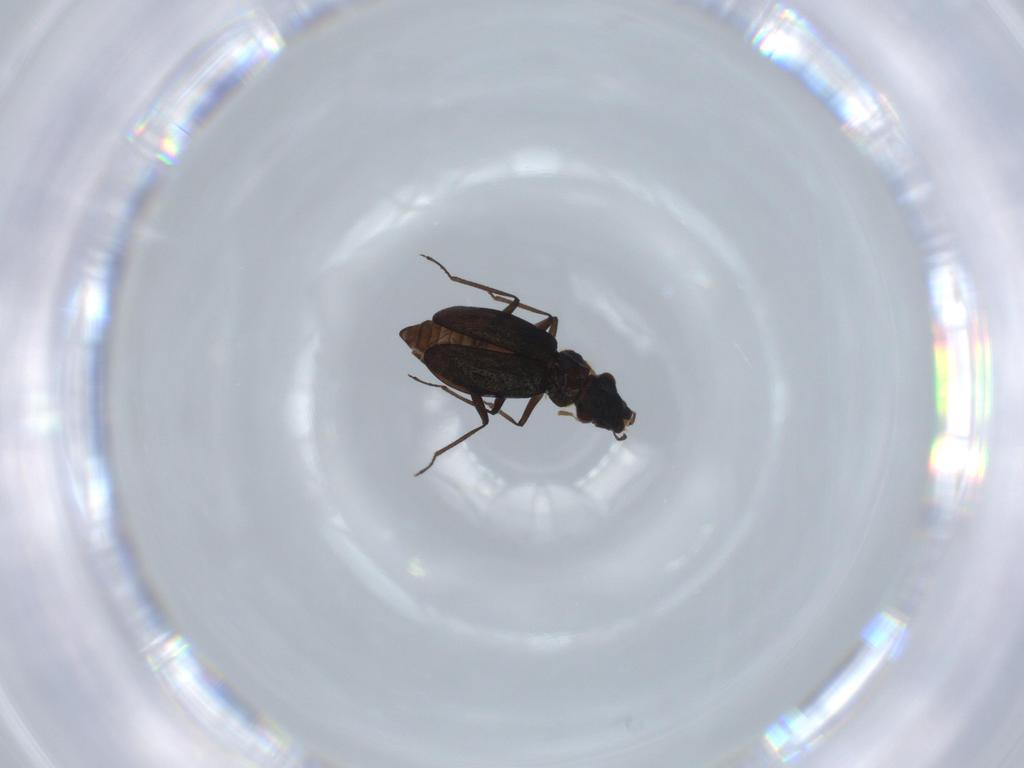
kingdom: Animalia
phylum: Arthropoda
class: Insecta
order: Coleoptera
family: Hydraenidae
